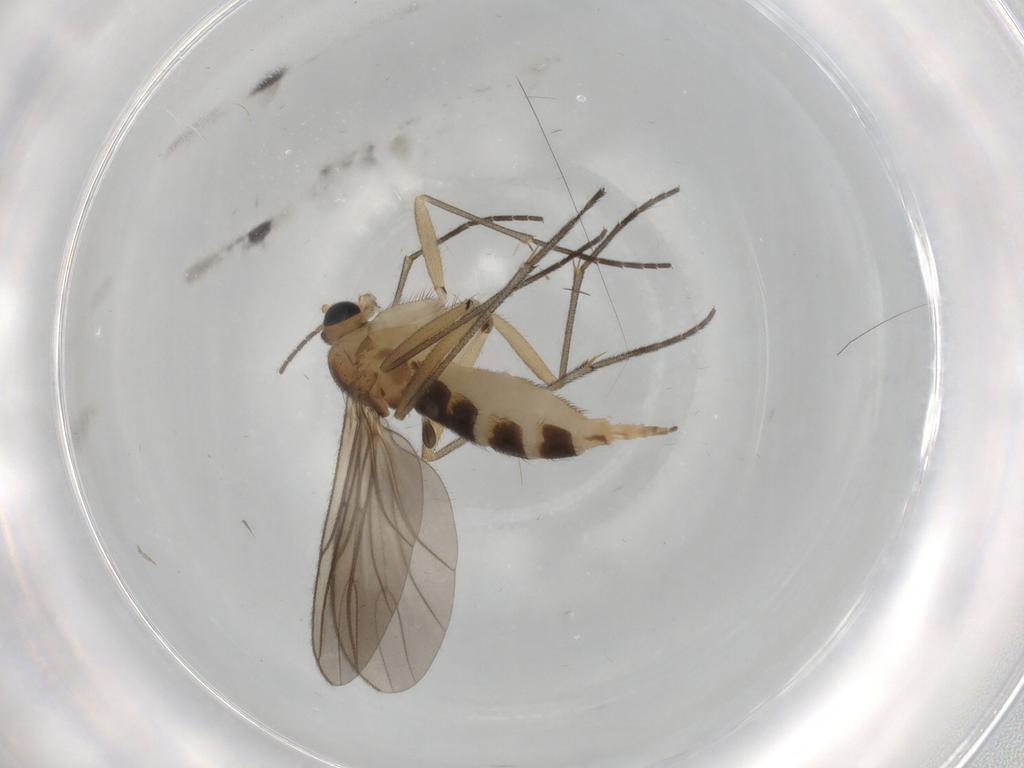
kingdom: Animalia
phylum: Arthropoda
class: Insecta
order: Diptera
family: Sciaridae
